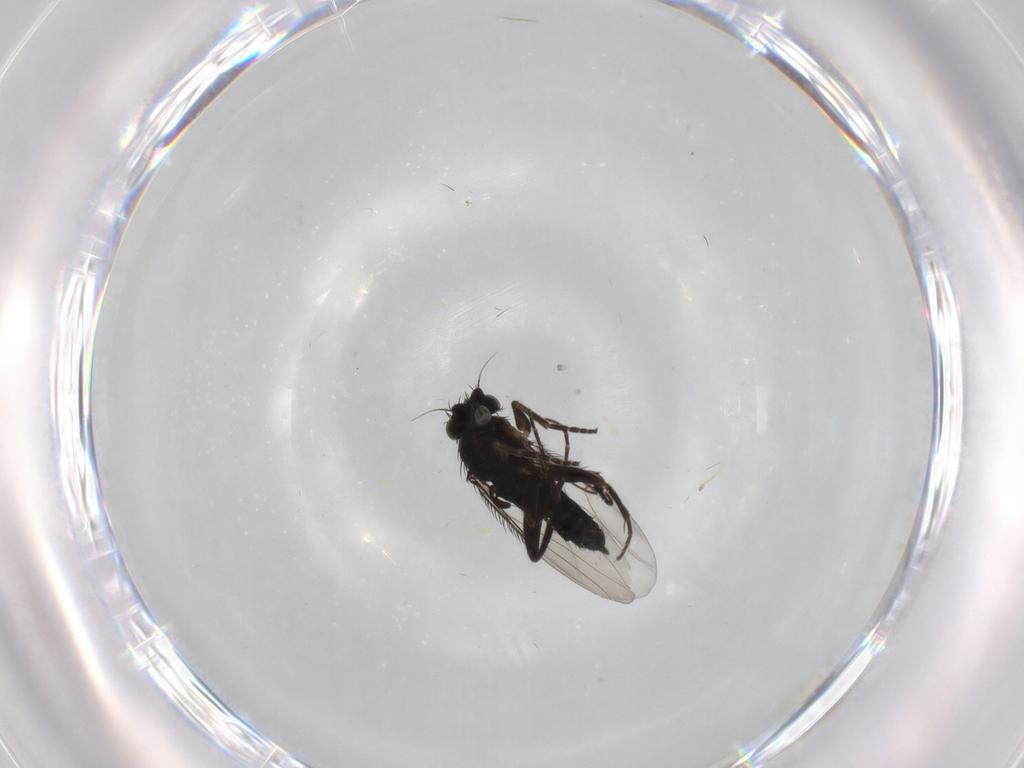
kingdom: Animalia
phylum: Arthropoda
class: Insecta
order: Diptera
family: Phoridae
